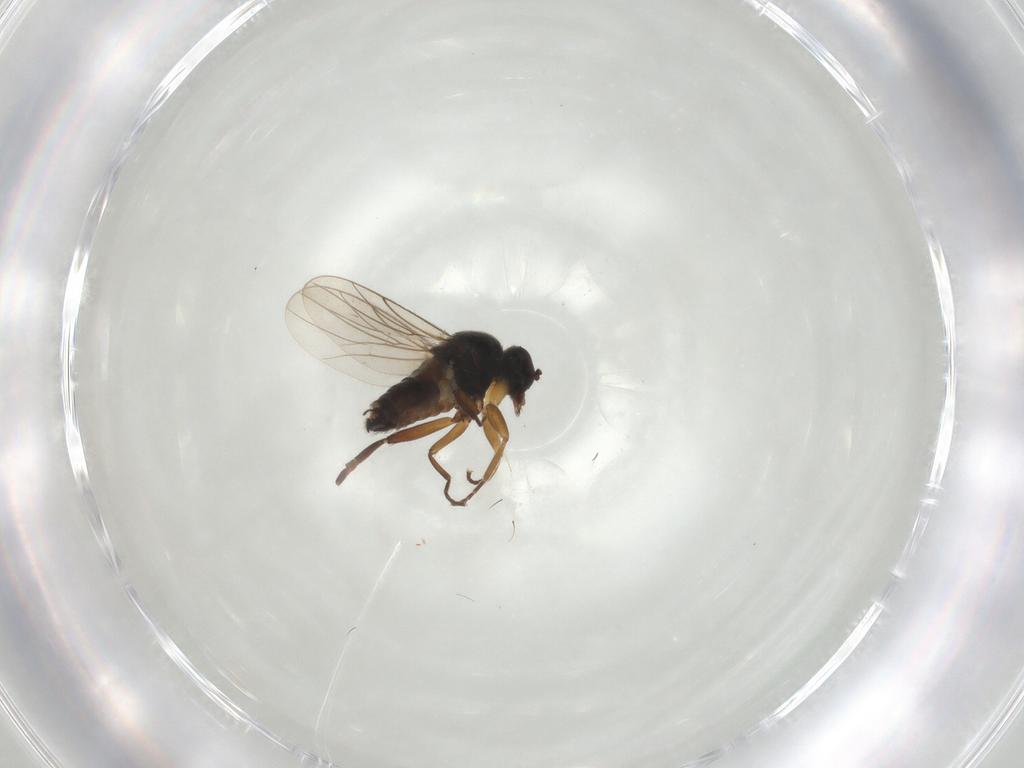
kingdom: Animalia
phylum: Arthropoda
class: Insecta
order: Diptera
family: Hybotidae
